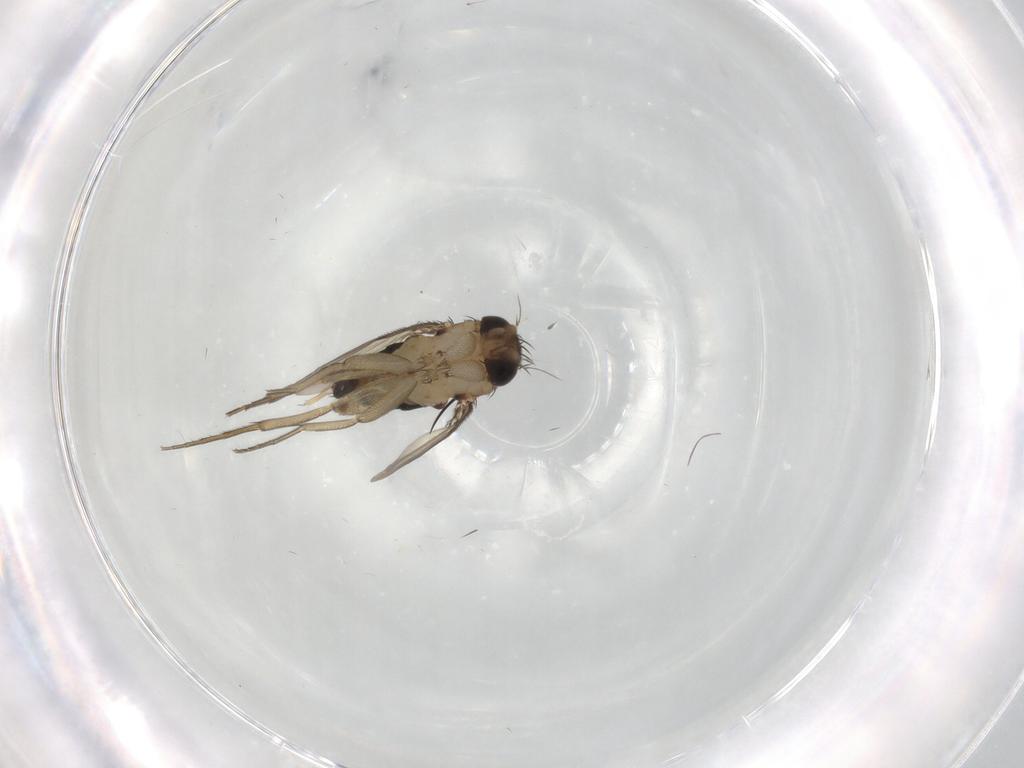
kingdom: Animalia
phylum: Arthropoda
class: Insecta
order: Diptera
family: Phoridae
